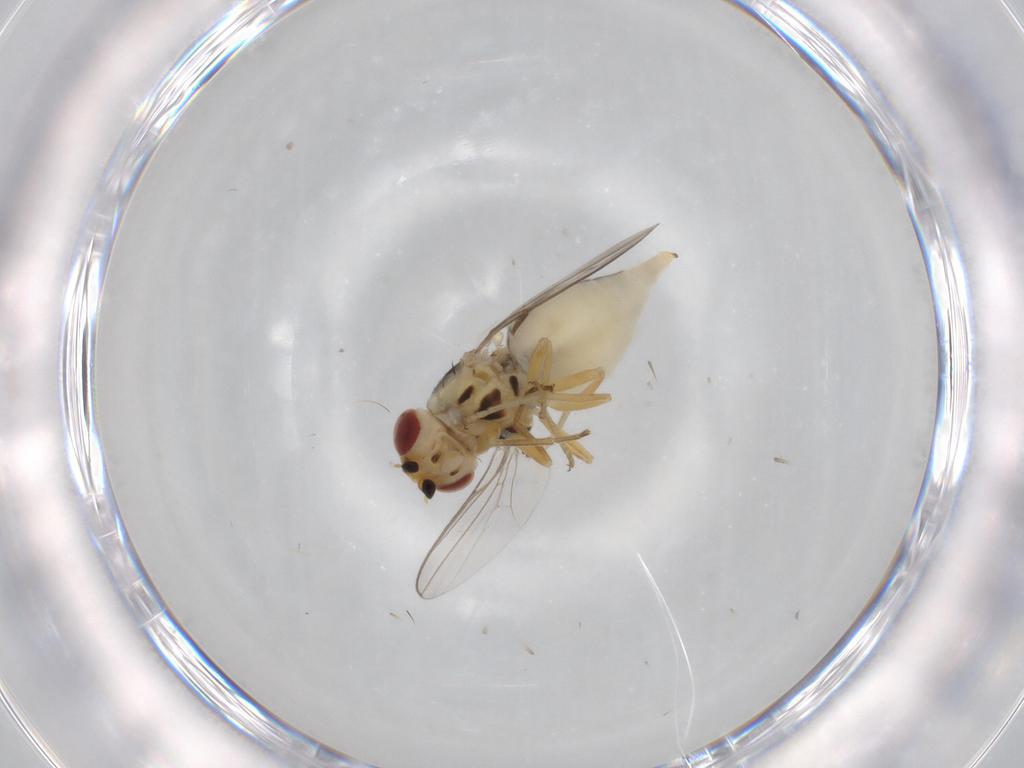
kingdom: Animalia
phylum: Arthropoda
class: Insecta
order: Diptera
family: Chloropidae
